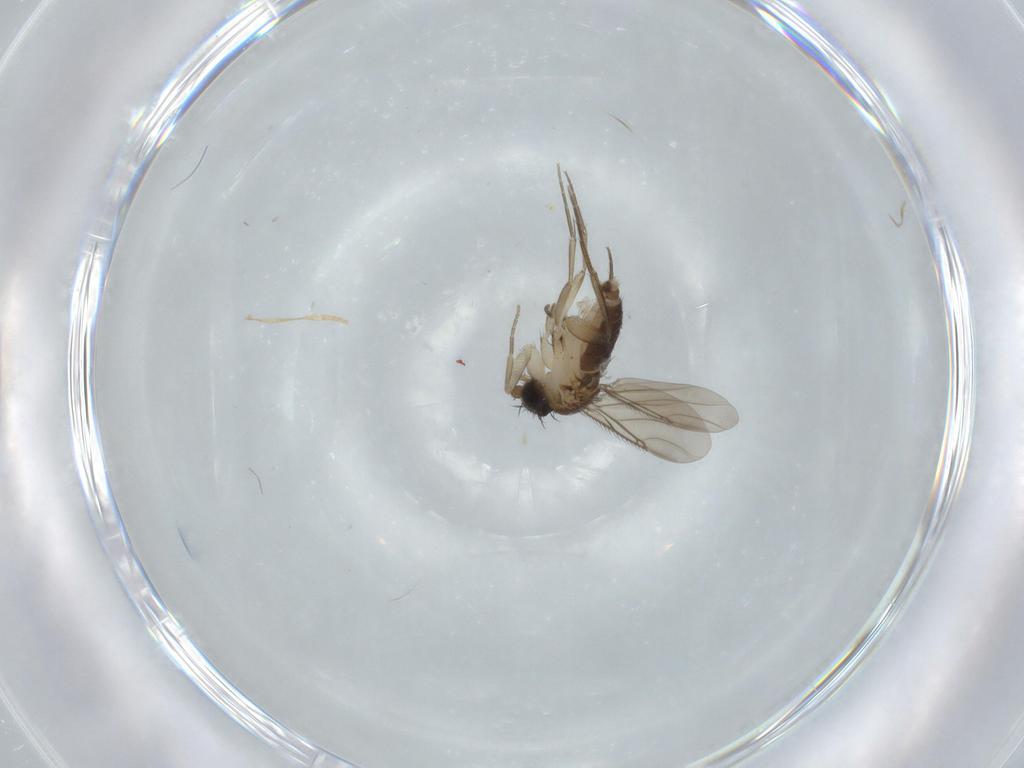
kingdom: Animalia
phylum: Arthropoda
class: Insecta
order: Diptera
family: Phoridae
